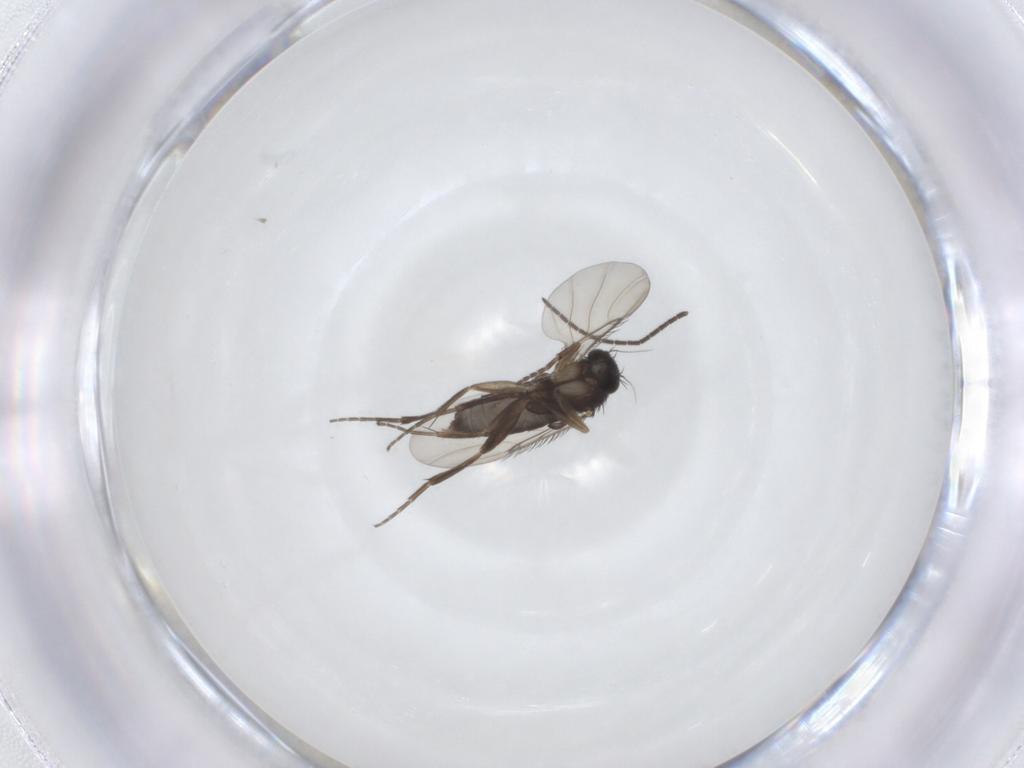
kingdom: Animalia
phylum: Arthropoda
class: Insecta
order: Diptera
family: Phoridae
